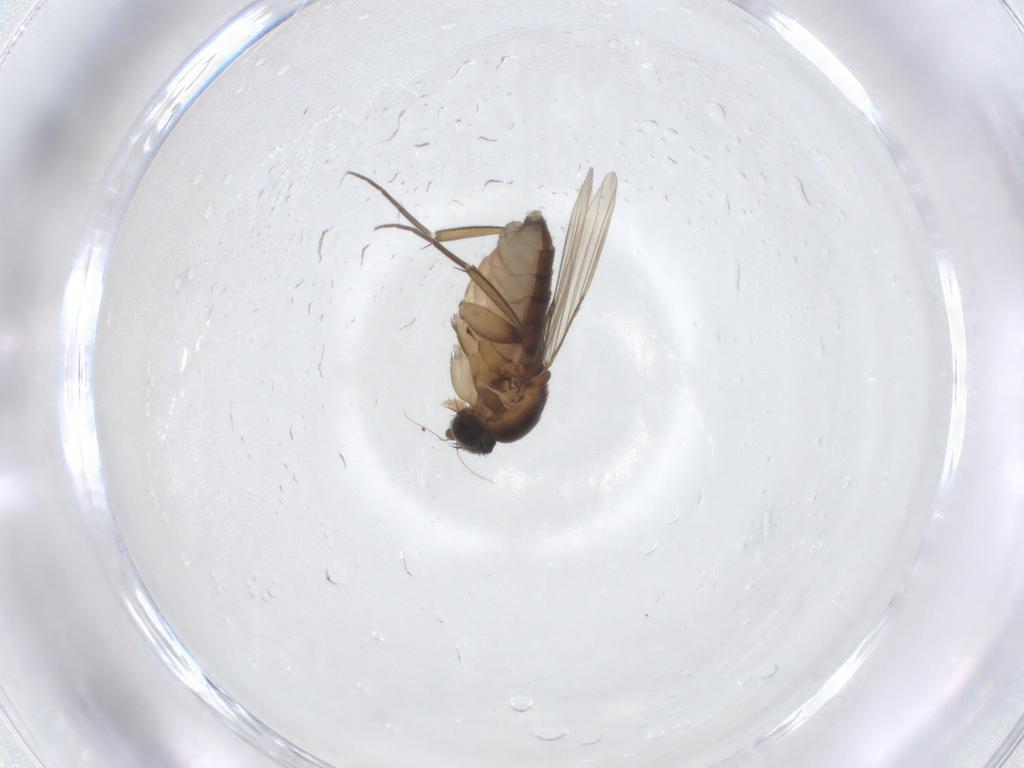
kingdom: Animalia
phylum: Arthropoda
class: Insecta
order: Diptera
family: Phoridae
